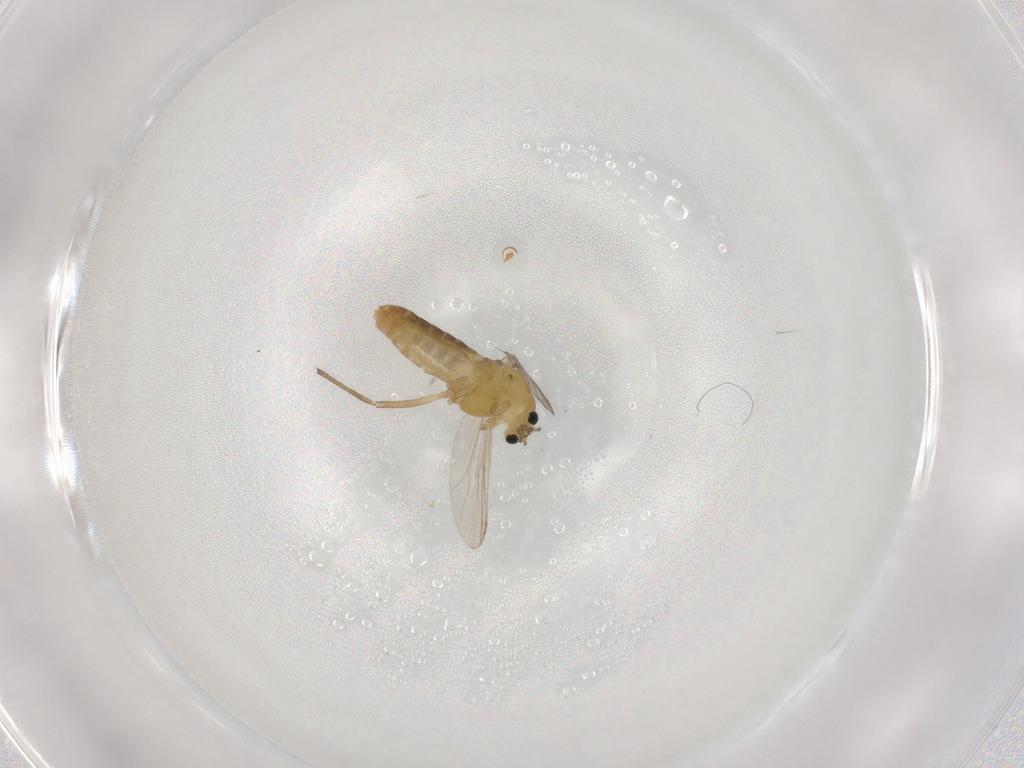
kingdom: Animalia
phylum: Arthropoda
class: Insecta
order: Diptera
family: Chironomidae
